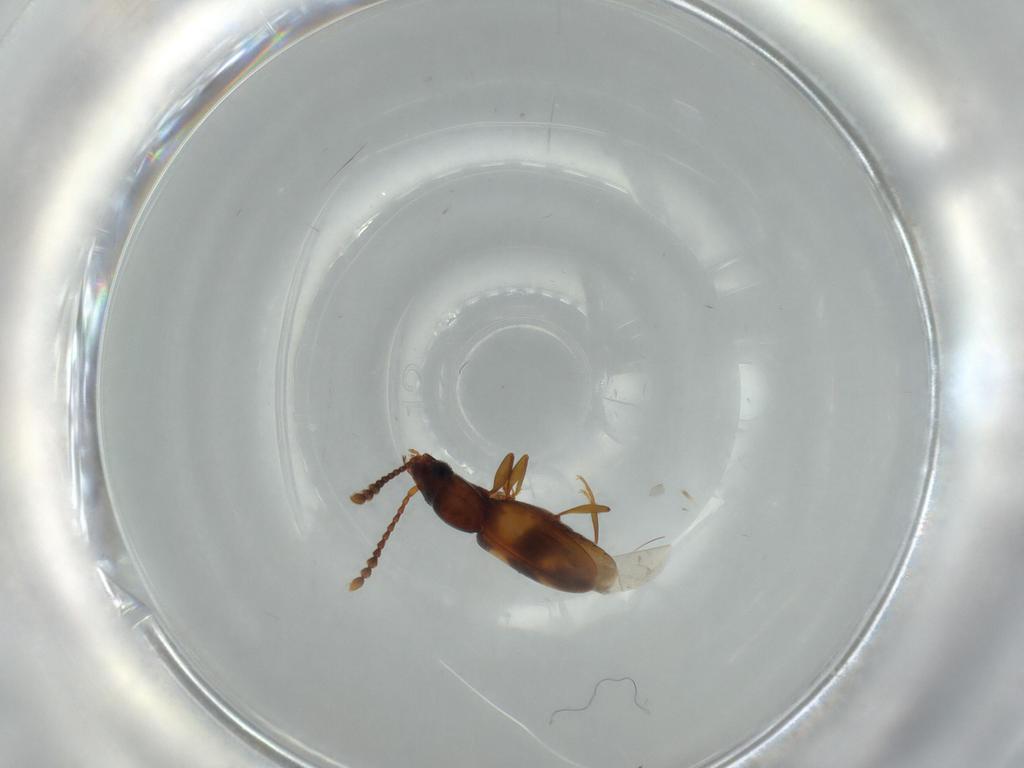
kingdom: Animalia
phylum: Arthropoda
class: Insecta
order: Coleoptera
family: Laemophloeidae
